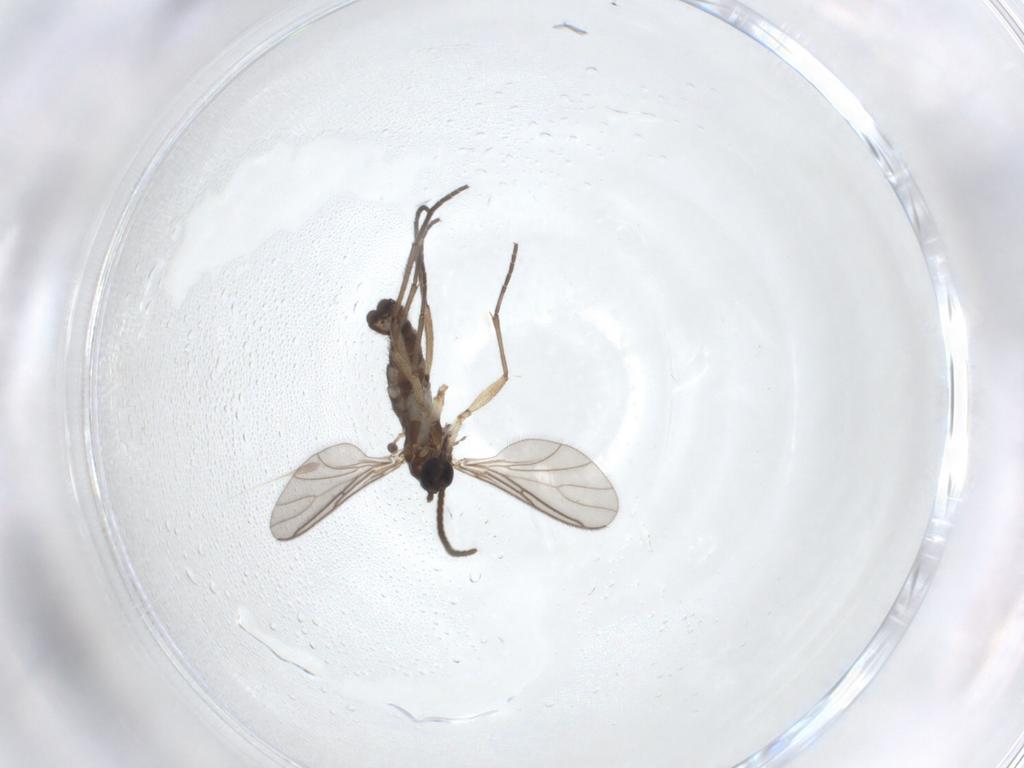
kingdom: Animalia
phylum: Arthropoda
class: Insecta
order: Diptera
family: Sciaridae
